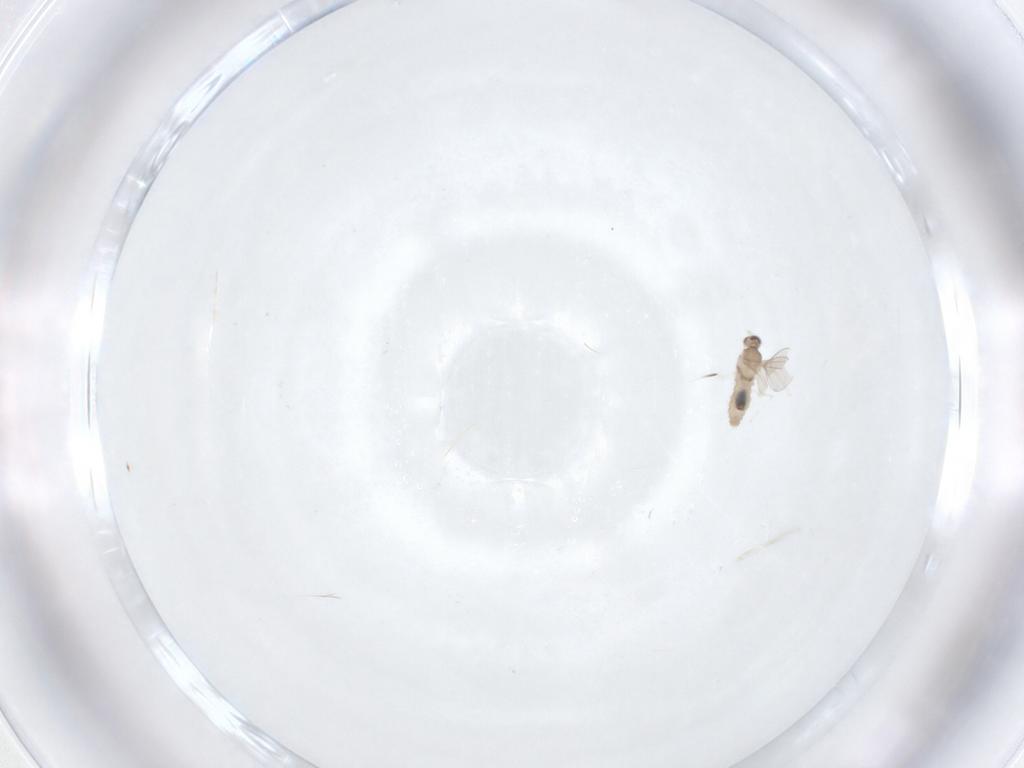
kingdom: Animalia
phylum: Arthropoda
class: Insecta
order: Diptera
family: Cecidomyiidae
